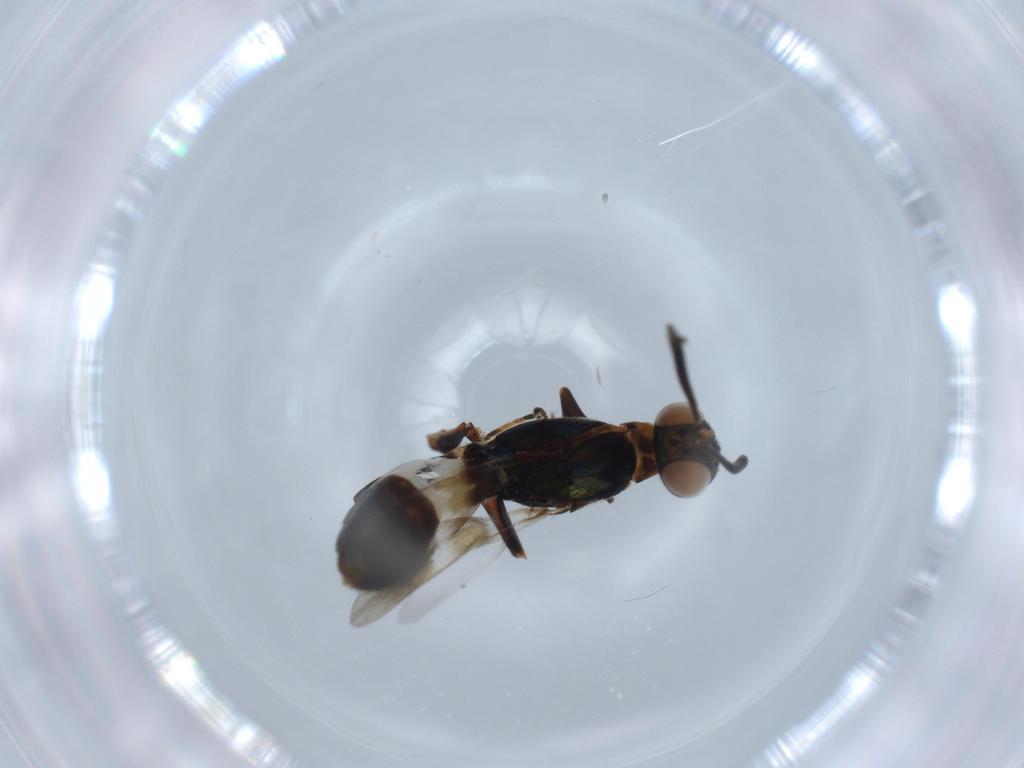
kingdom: Animalia
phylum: Arthropoda
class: Insecta
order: Hymenoptera
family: Eupelmidae
